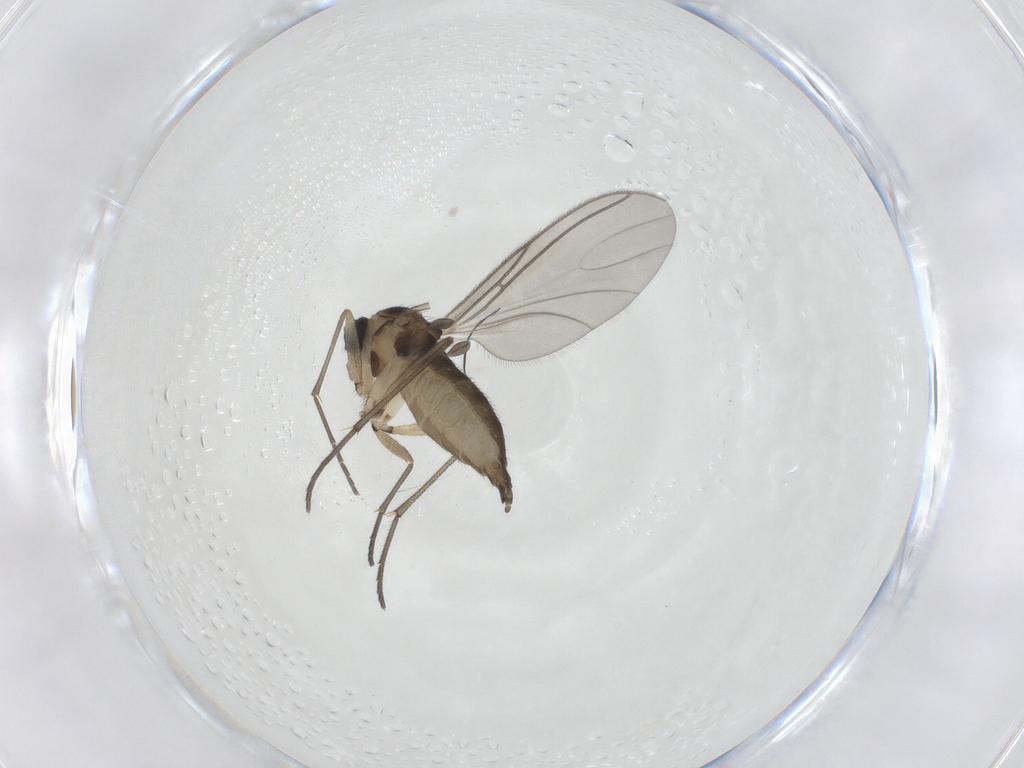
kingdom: Animalia
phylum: Arthropoda
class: Insecta
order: Diptera
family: Sciaridae
